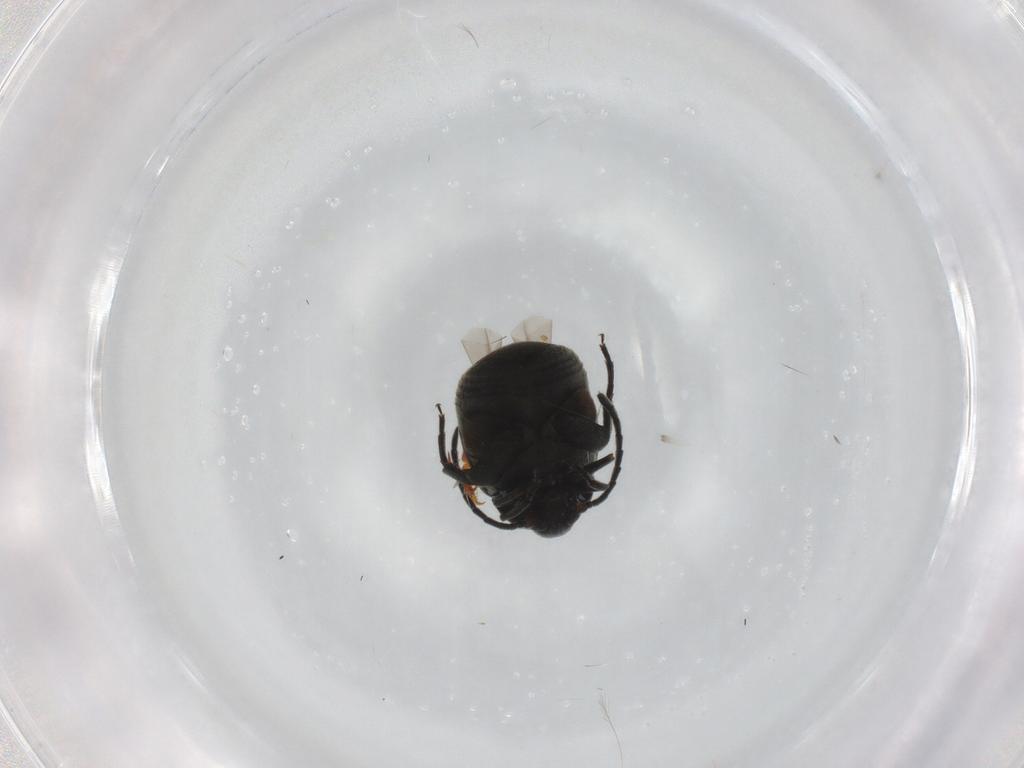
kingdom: Animalia
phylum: Arthropoda
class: Insecta
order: Coleoptera
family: Chrysomelidae
